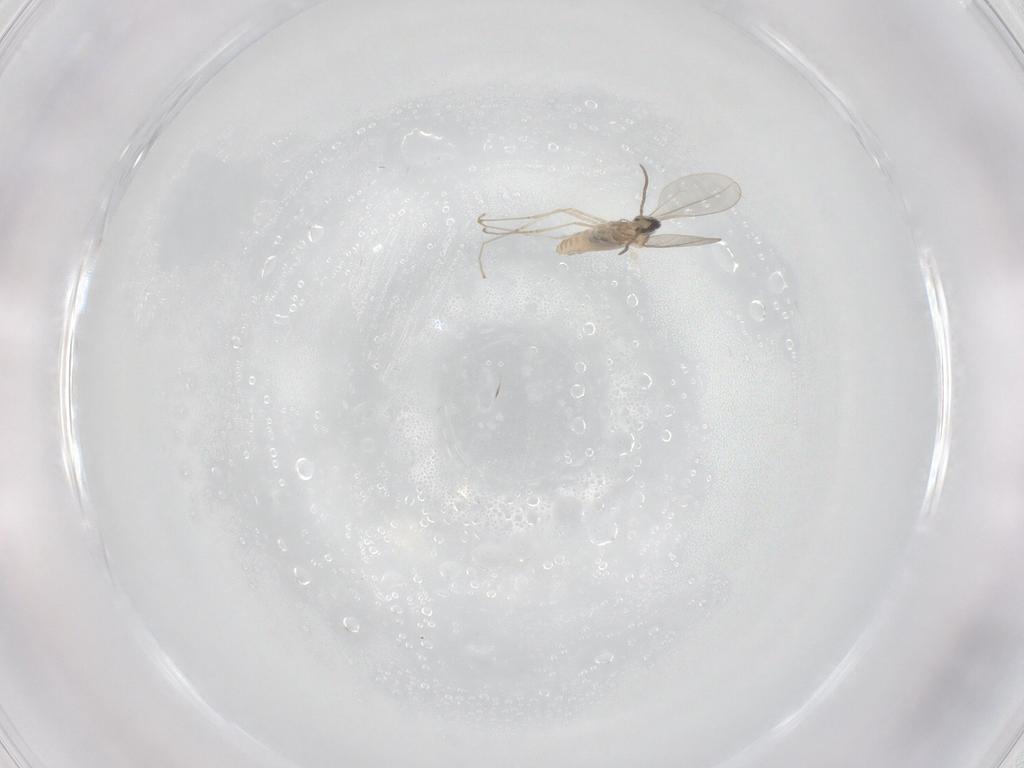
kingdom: Animalia
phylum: Arthropoda
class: Insecta
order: Diptera
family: Cecidomyiidae
